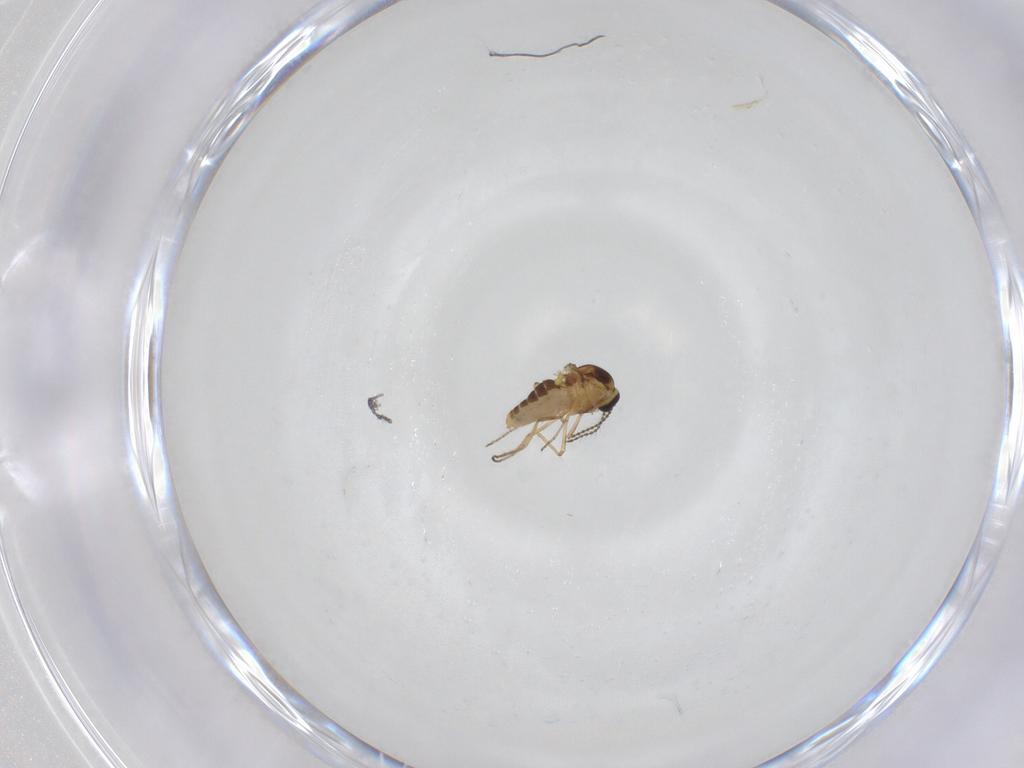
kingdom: Animalia
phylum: Arthropoda
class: Insecta
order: Diptera
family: Ceratopogonidae
